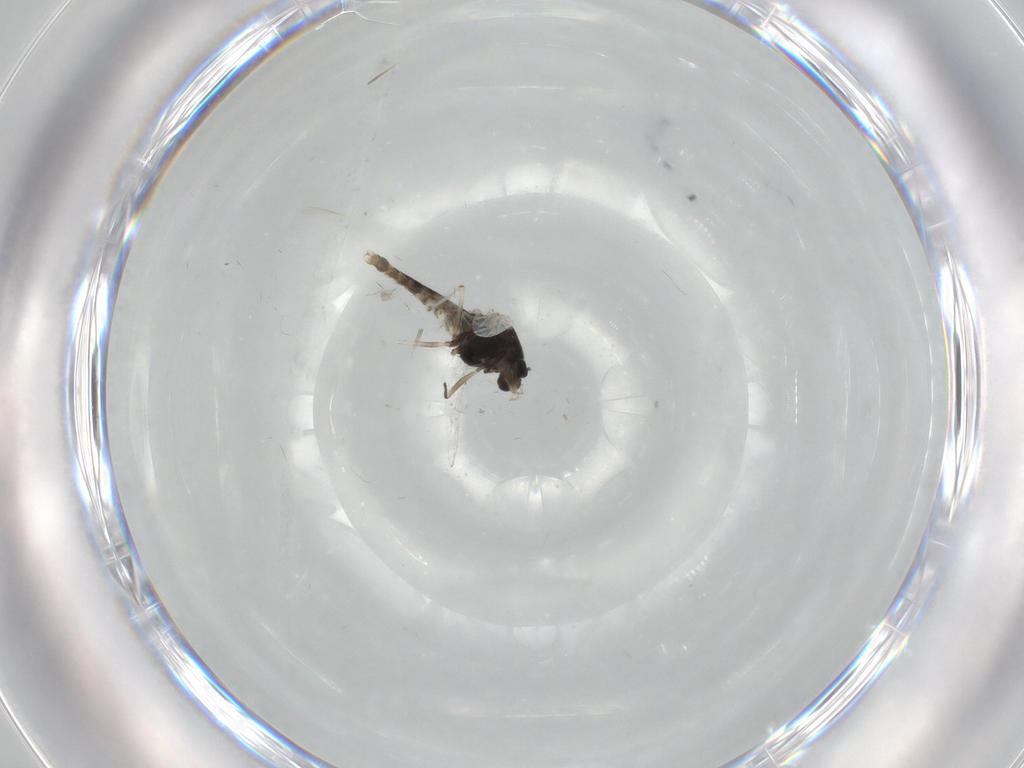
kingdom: Animalia
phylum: Arthropoda
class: Insecta
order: Diptera
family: Chironomidae
